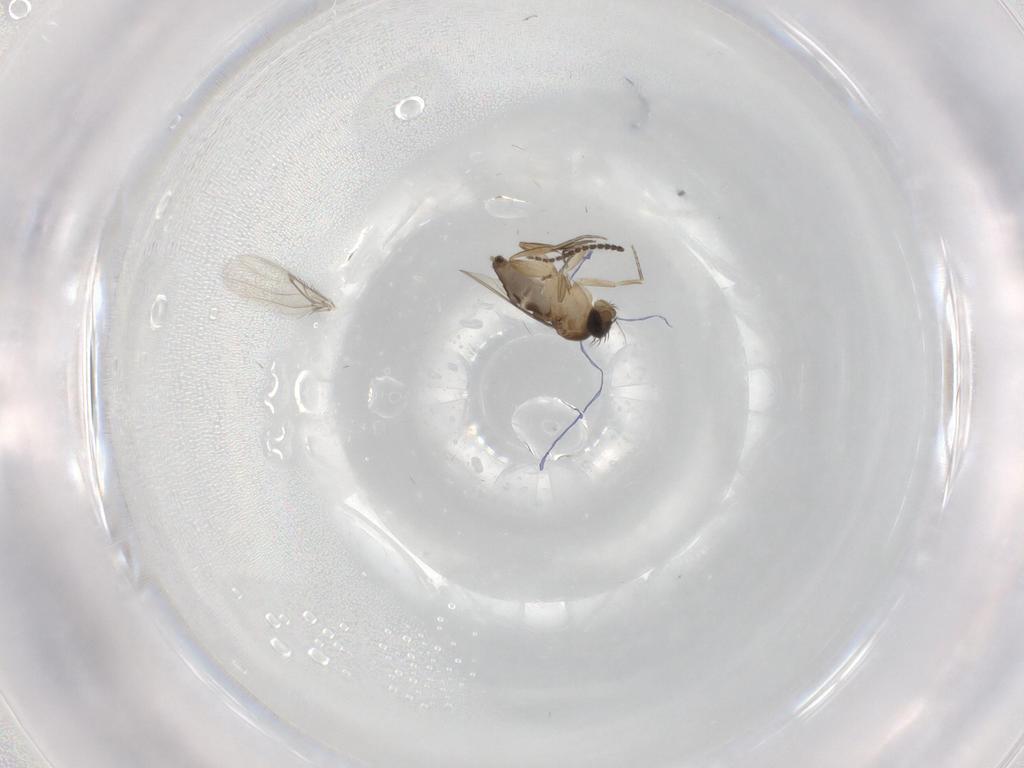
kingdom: Animalia
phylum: Arthropoda
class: Insecta
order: Diptera
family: Phoridae
